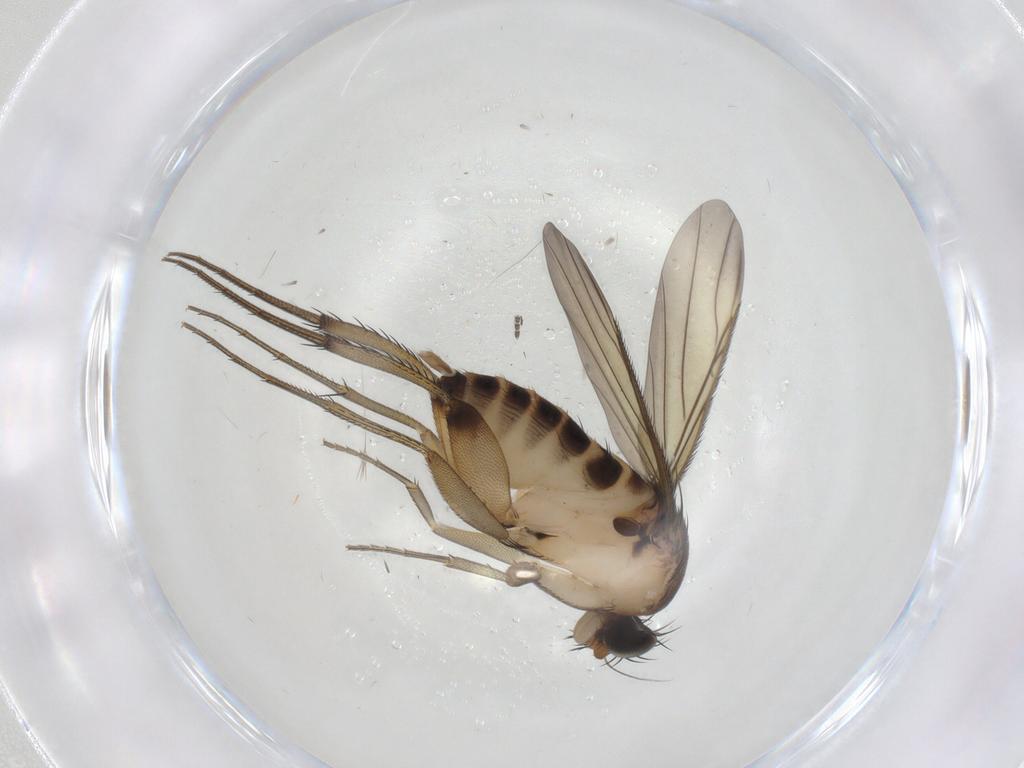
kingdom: Animalia
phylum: Arthropoda
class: Insecta
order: Diptera
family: Sciaridae
